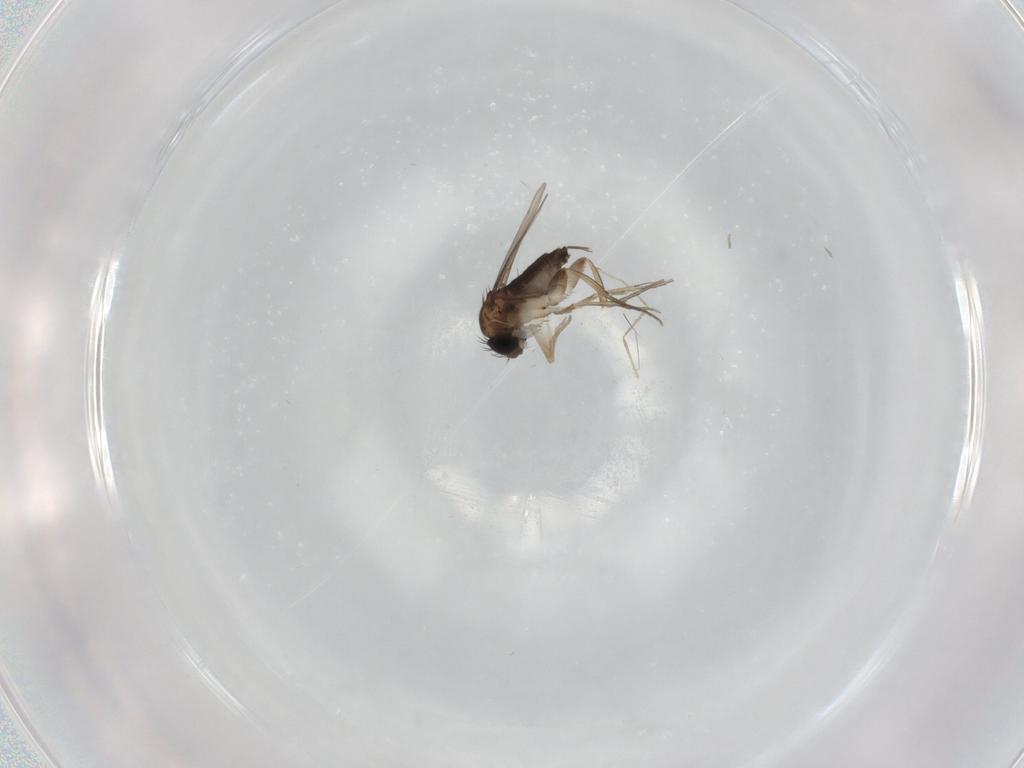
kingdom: Animalia
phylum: Arthropoda
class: Insecta
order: Diptera
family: Phoridae
